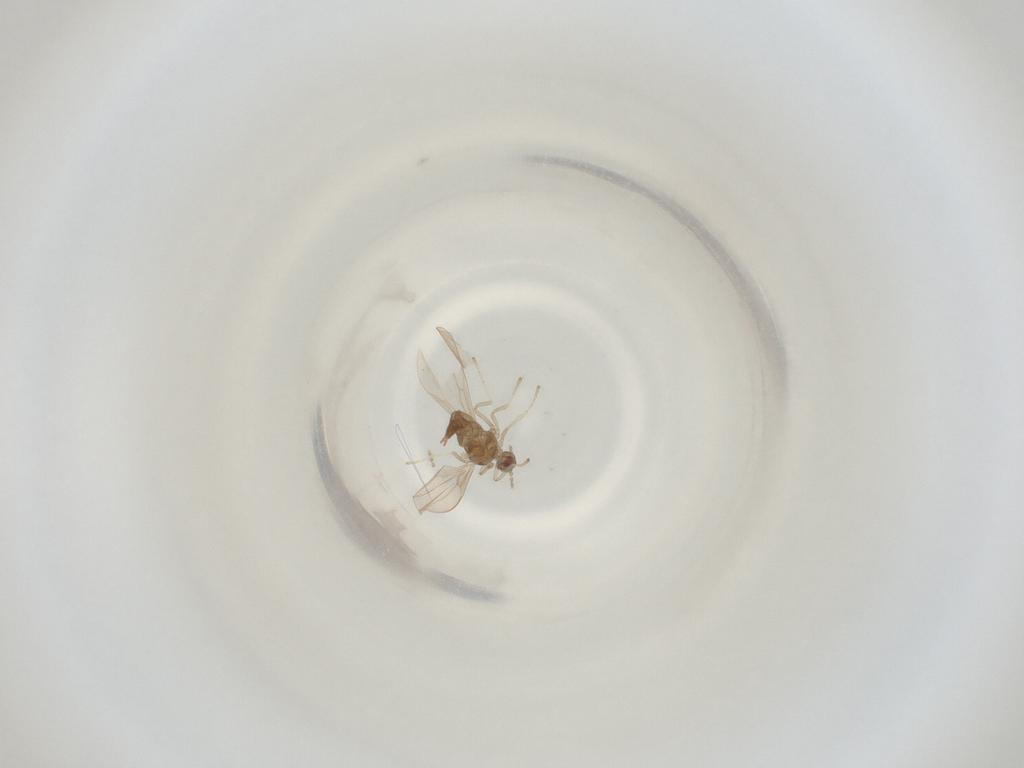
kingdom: Animalia
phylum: Arthropoda
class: Insecta
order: Diptera
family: Cecidomyiidae
